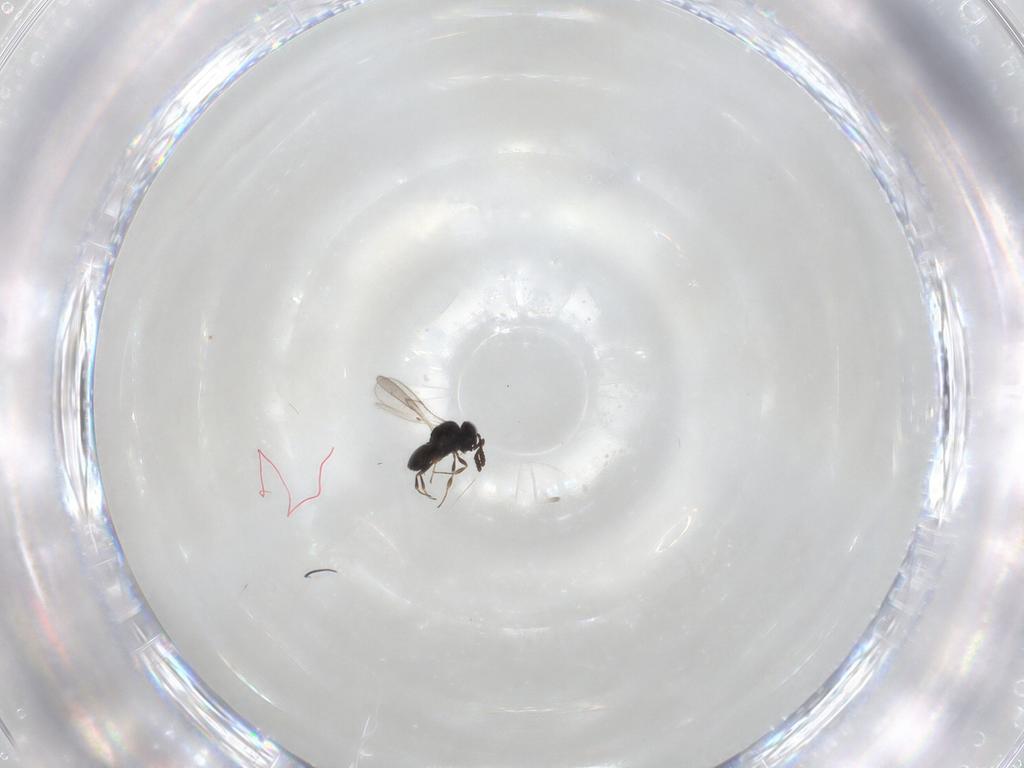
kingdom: Animalia
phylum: Arthropoda
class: Insecta
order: Hymenoptera
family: Scelionidae
